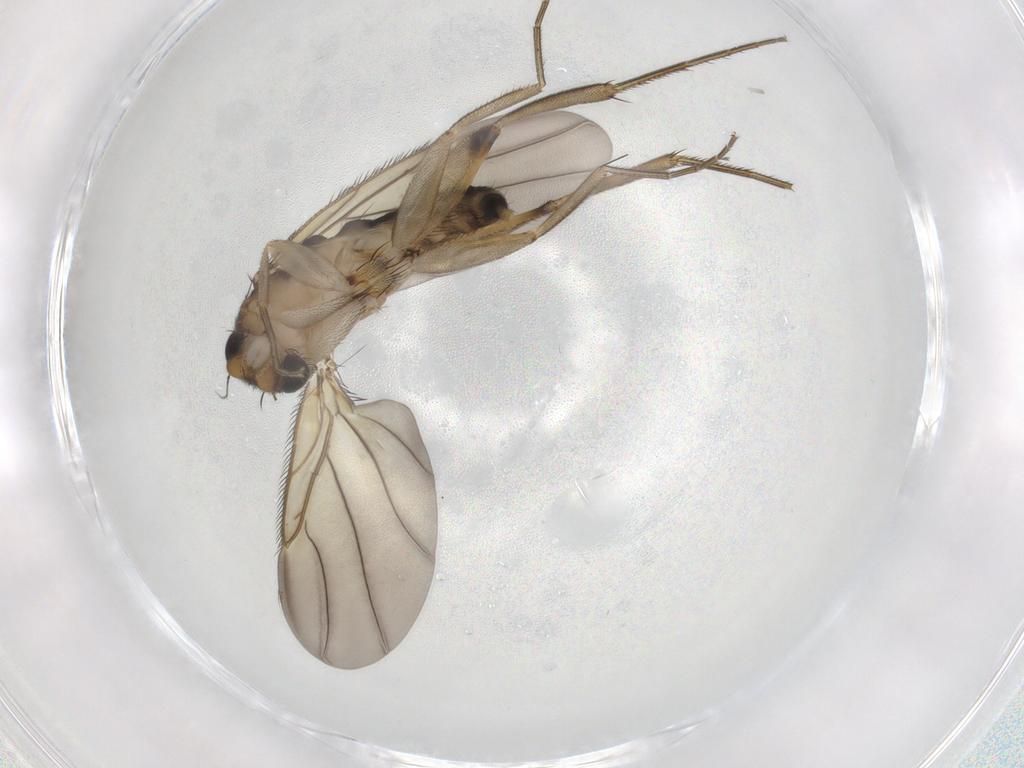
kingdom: Animalia
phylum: Arthropoda
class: Insecta
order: Diptera
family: Phoridae
